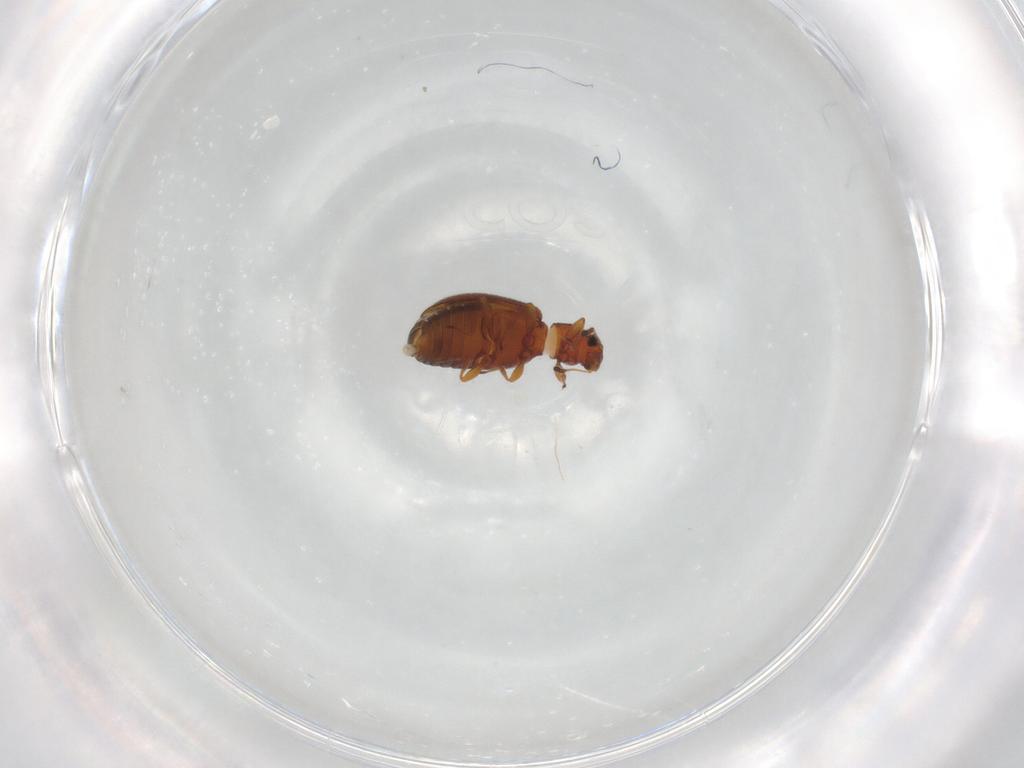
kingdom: Animalia
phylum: Arthropoda
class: Insecta
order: Coleoptera
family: Latridiidae
